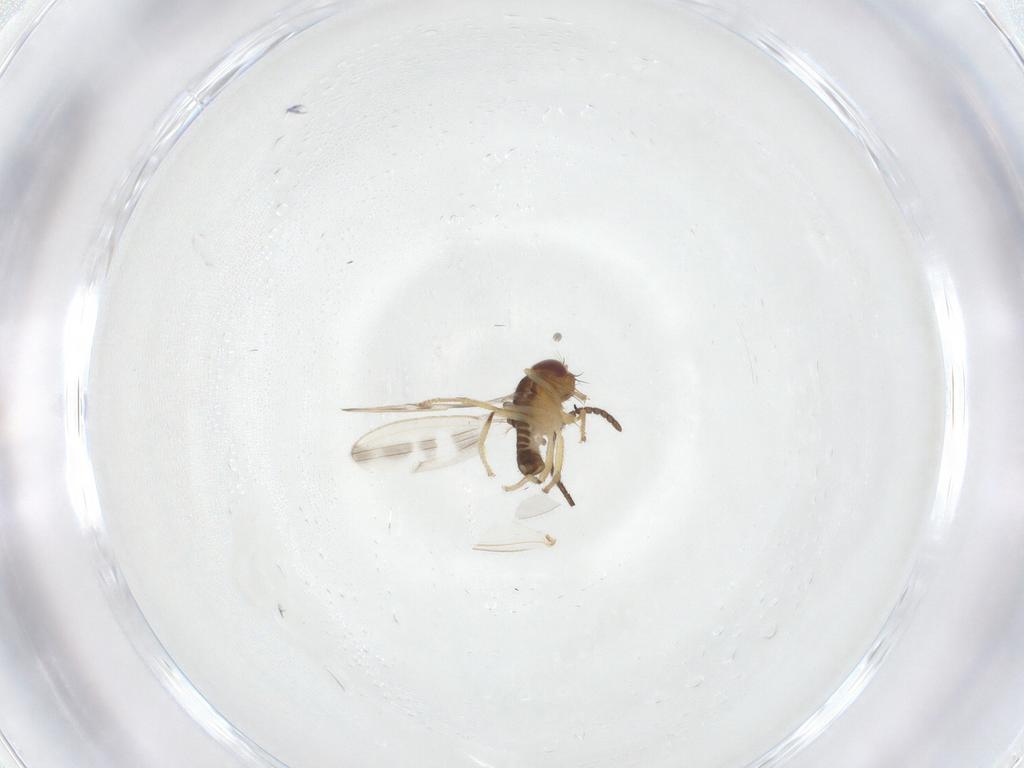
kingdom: Animalia
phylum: Arthropoda
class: Insecta
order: Diptera
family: Periscelididae
